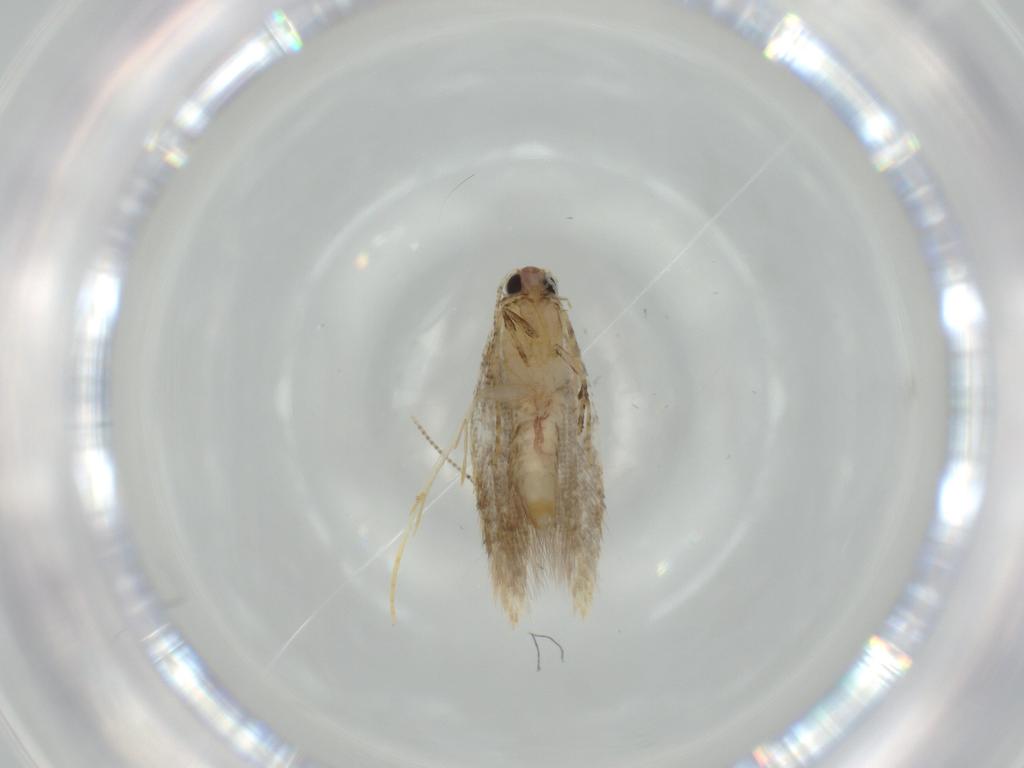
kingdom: Animalia
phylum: Arthropoda
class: Insecta
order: Lepidoptera
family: Tineidae
